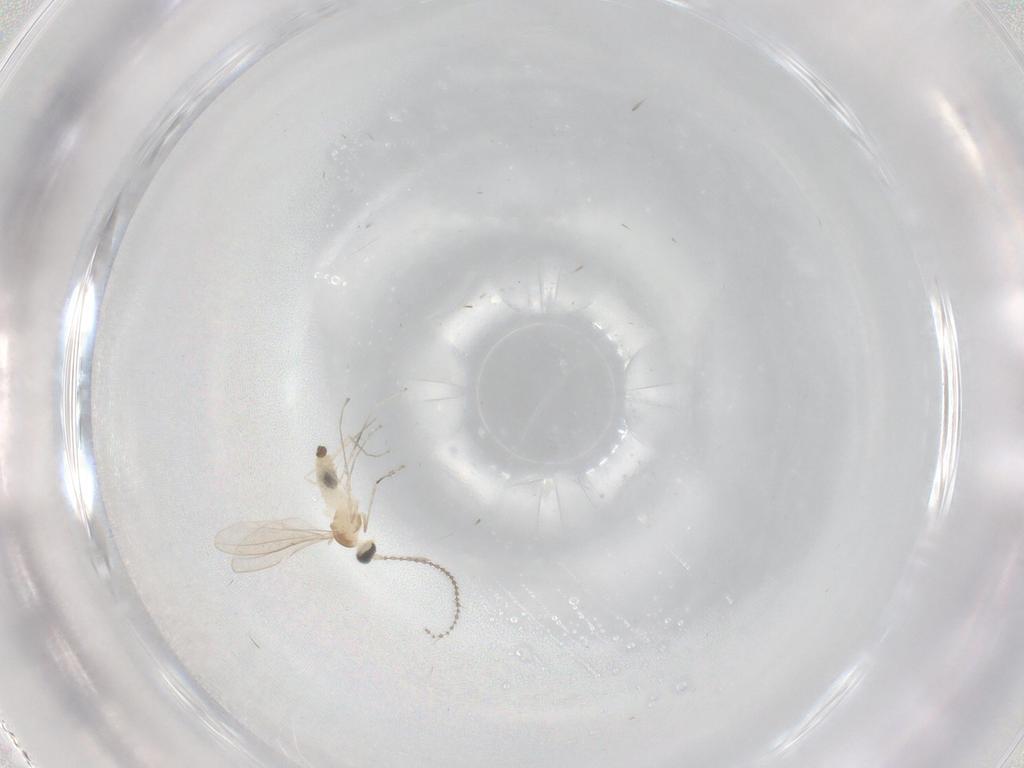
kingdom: Animalia
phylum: Arthropoda
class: Insecta
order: Diptera
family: Cecidomyiidae
